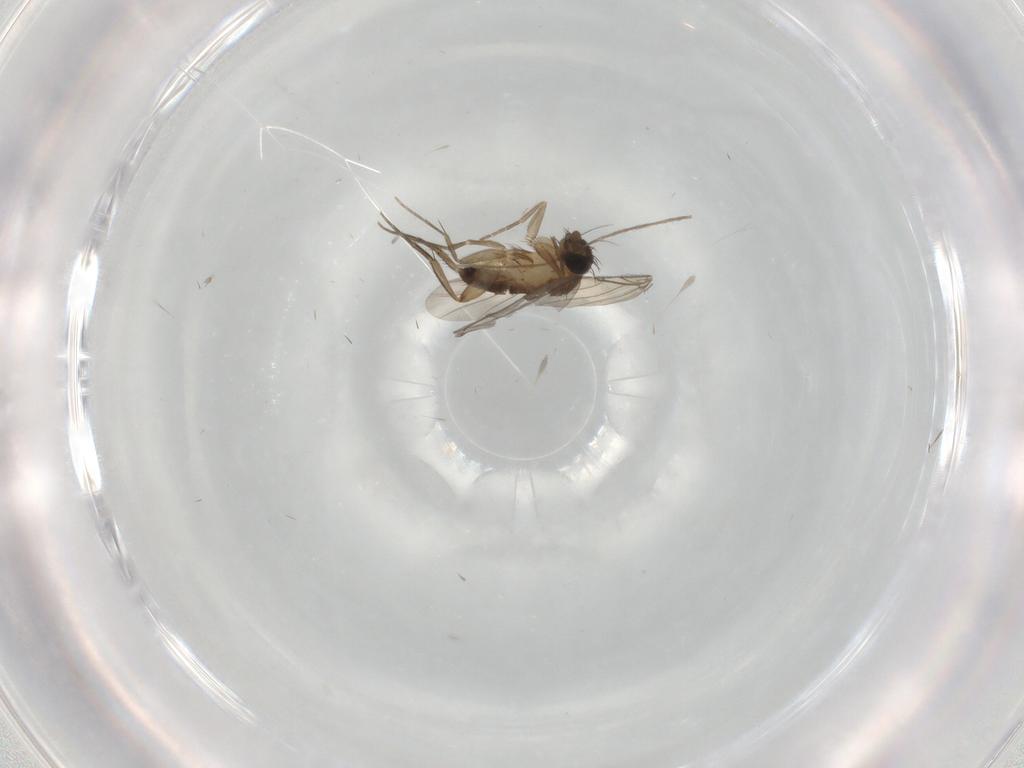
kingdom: Animalia
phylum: Arthropoda
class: Insecta
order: Diptera
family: Phoridae
